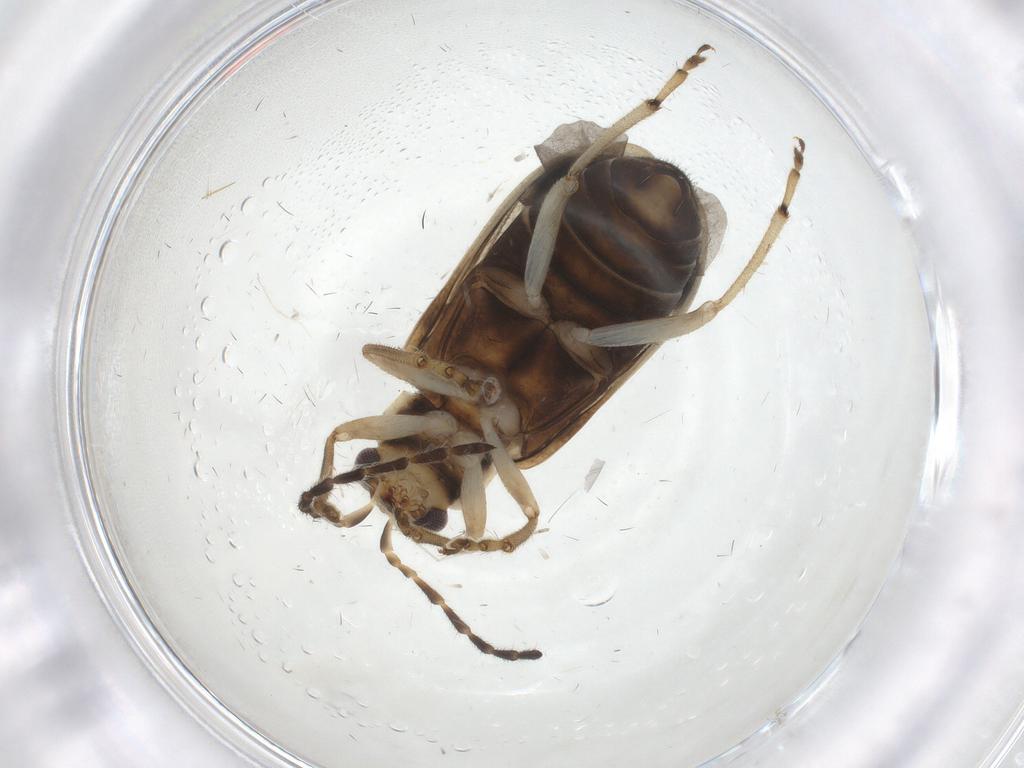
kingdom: Animalia
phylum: Arthropoda
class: Insecta
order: Coleoptera
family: Chrysomelidae
